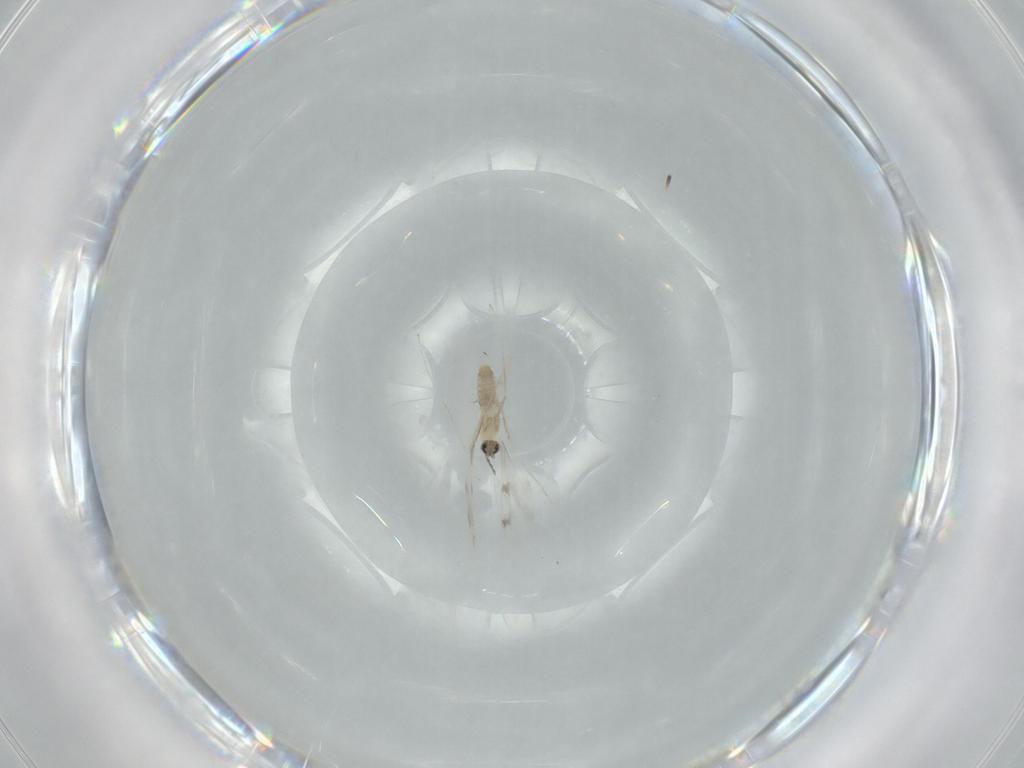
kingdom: Animalia
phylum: Arthropoda
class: Insecta
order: Diptera
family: Cecidomyiidae
